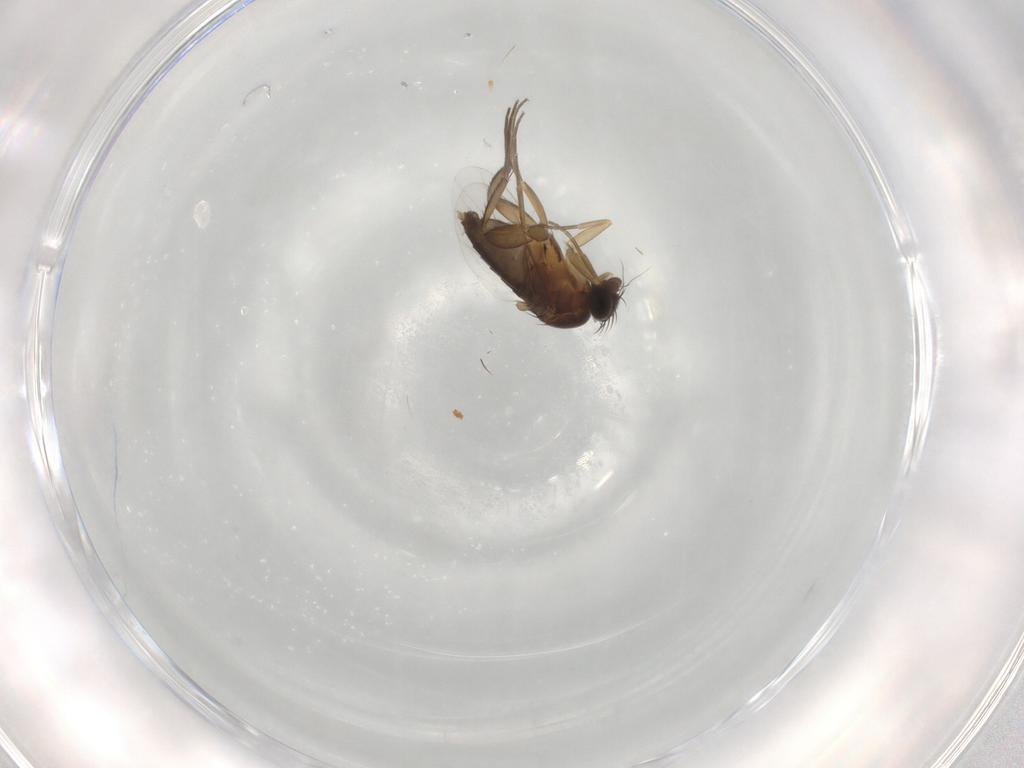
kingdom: Animalia
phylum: Arthropoda
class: Insecta
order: Diptera
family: Phoridae
